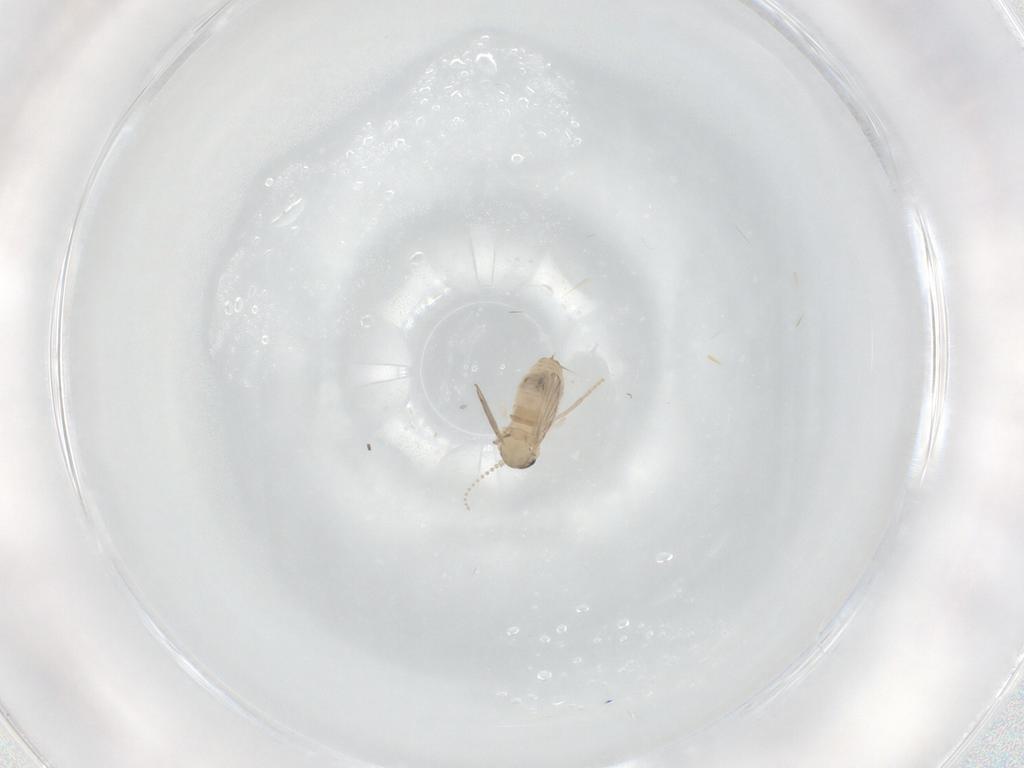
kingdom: Animalia
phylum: Arthropoda
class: Insecta
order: Diptera
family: Psychodidae
